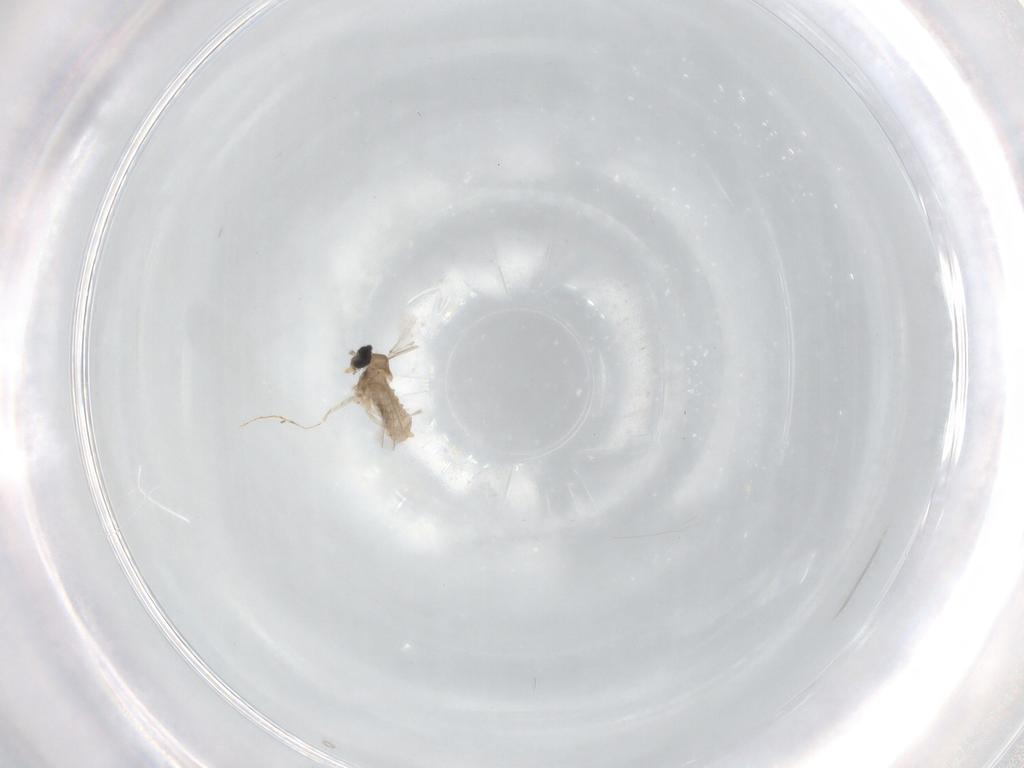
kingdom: Animalia
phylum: Arthropoda
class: Insecta
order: Diptera
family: Cecidomyiidae
